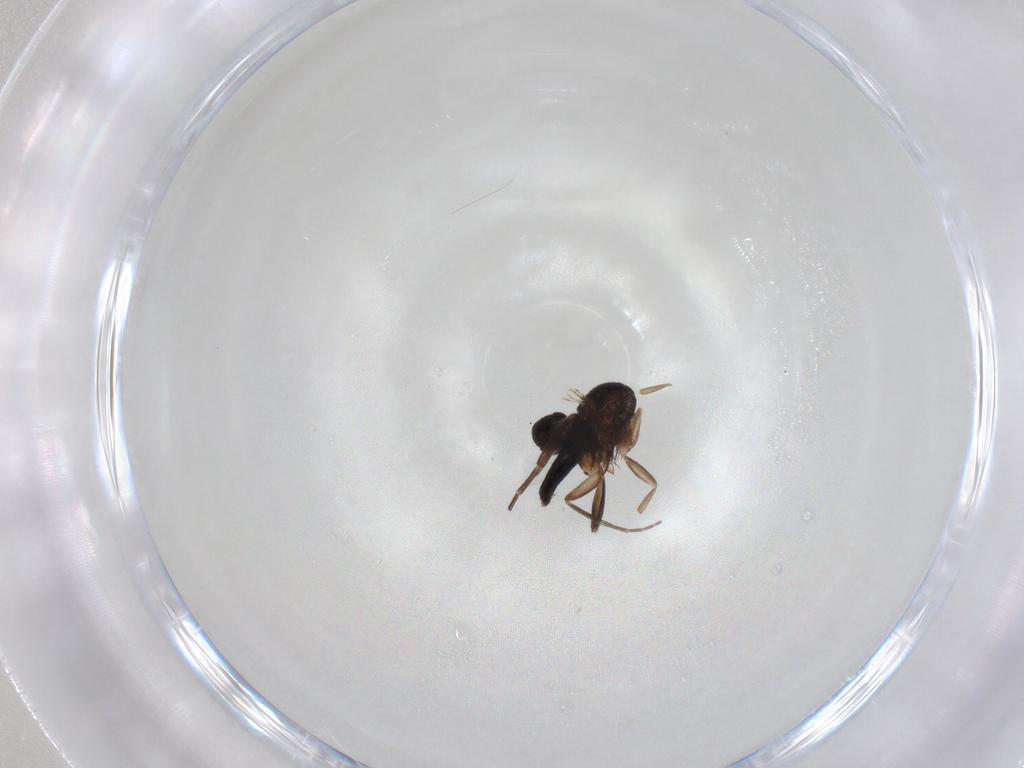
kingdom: Animalia
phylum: Arthropoda
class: Insecta
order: Diptera
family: Phoridae
